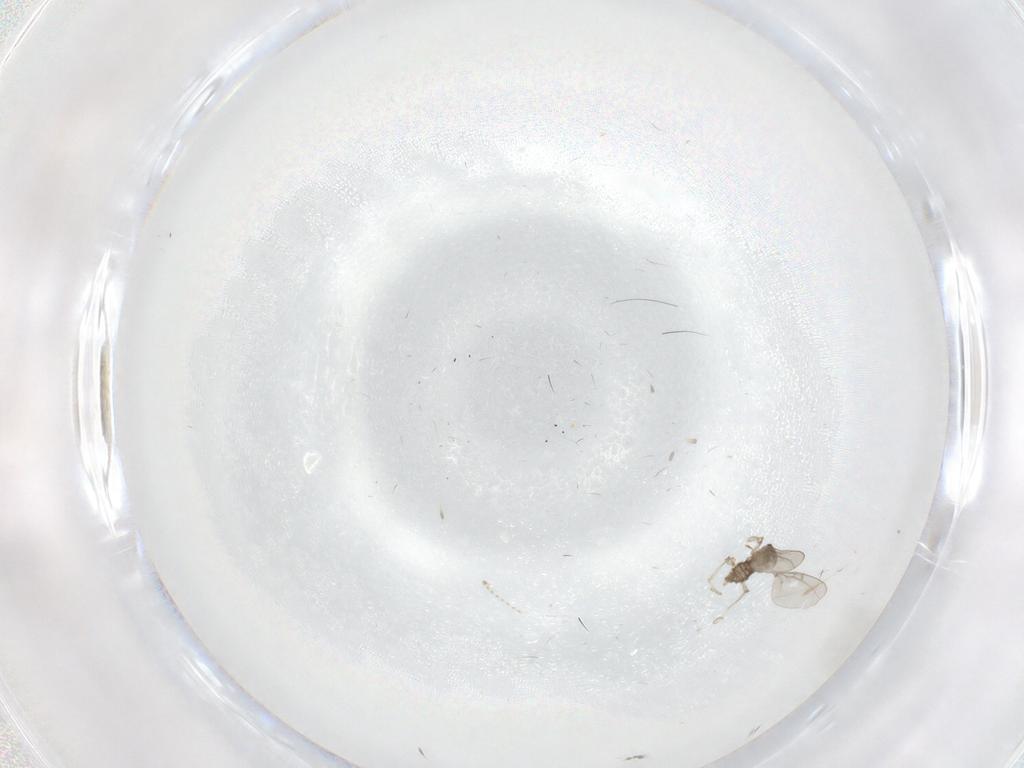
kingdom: Animalia
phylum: Arthropoda
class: Insecta
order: Diptera
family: Cecidomyiidae
